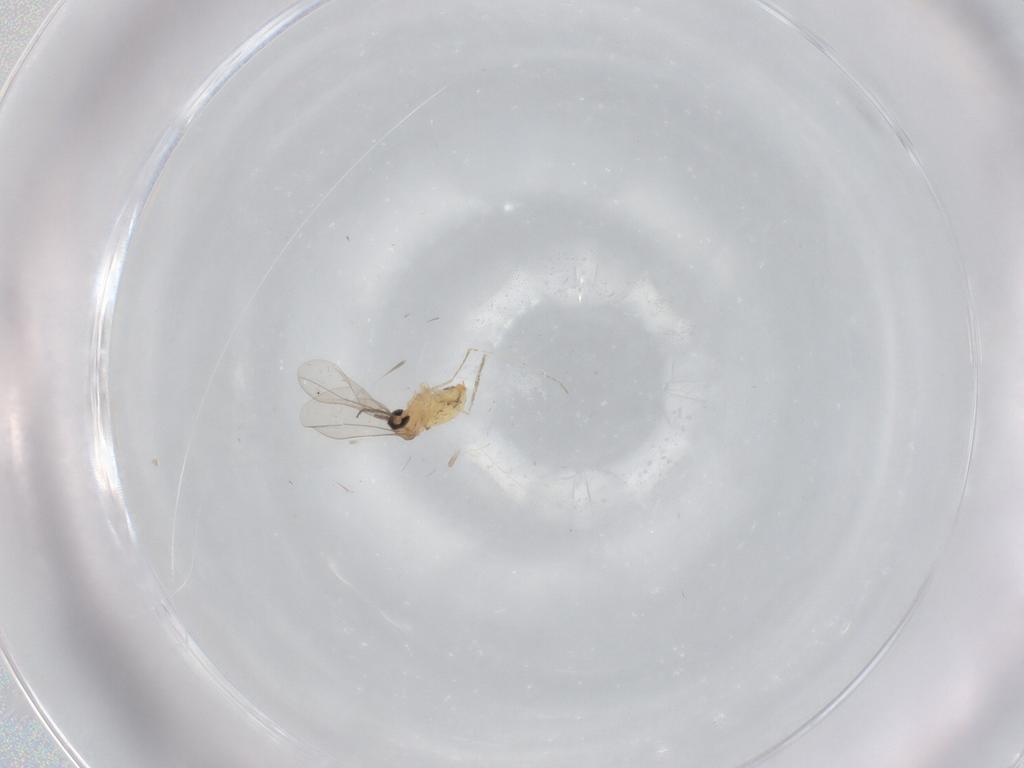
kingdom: Animalia
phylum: Arthropoda
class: Insecta
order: Diptera
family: Cecidomyiidae
